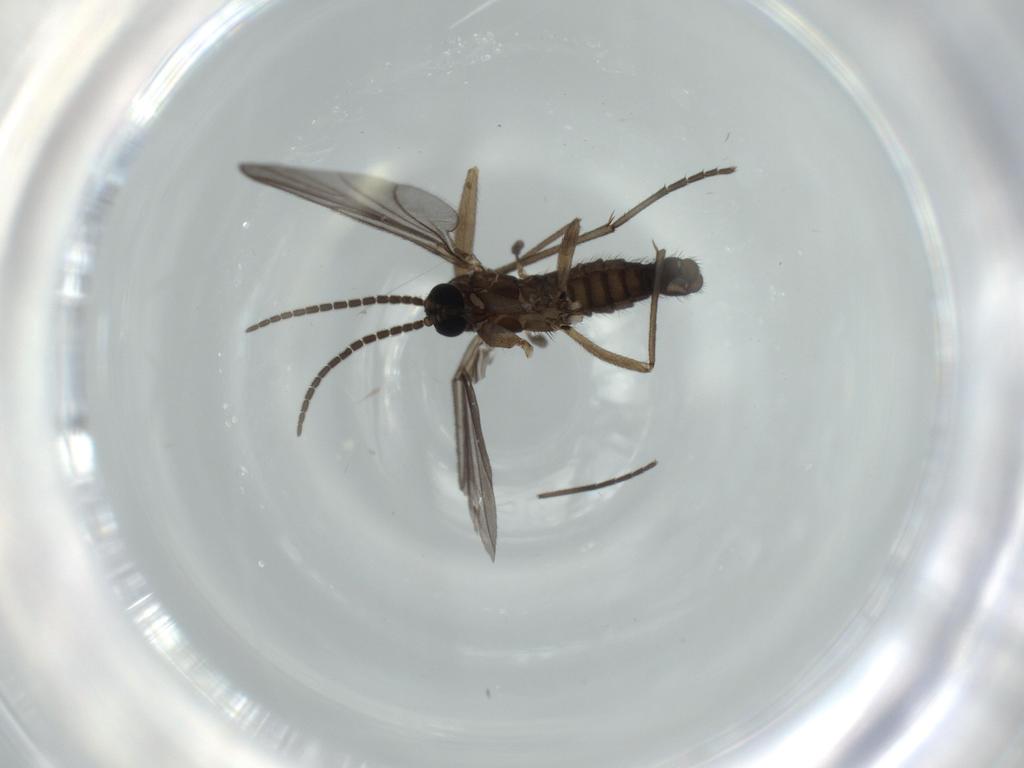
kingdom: Animalia
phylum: Arthropoda
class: Insecta
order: Diptera
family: Sciaridae
